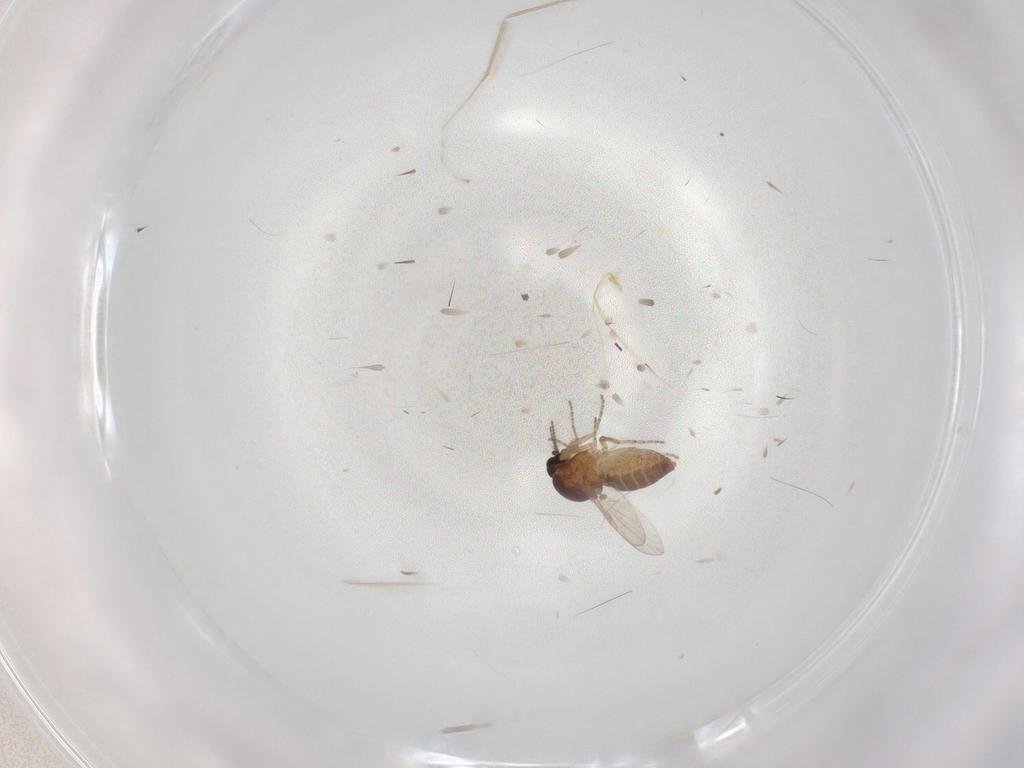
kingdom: Animalia
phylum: Arthropoda
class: Insecta
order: Diptera
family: Ceratopogonidae
